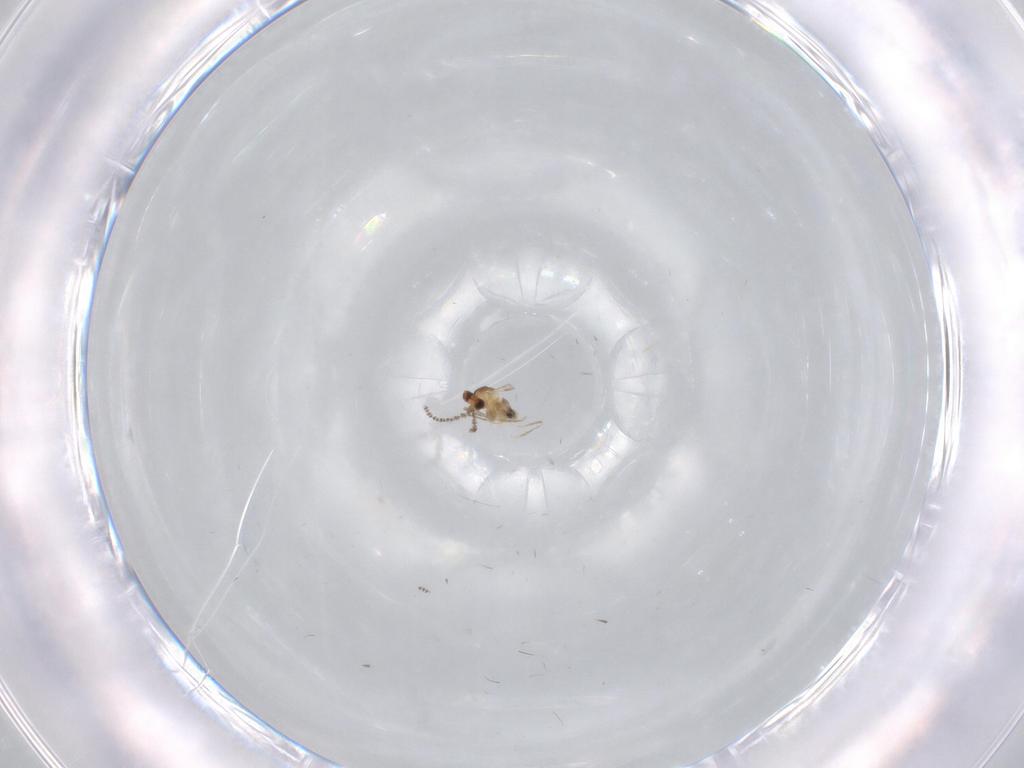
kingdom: Animalia
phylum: Arthropoda
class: Insecta
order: Diptera
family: Cecidomyiidae
